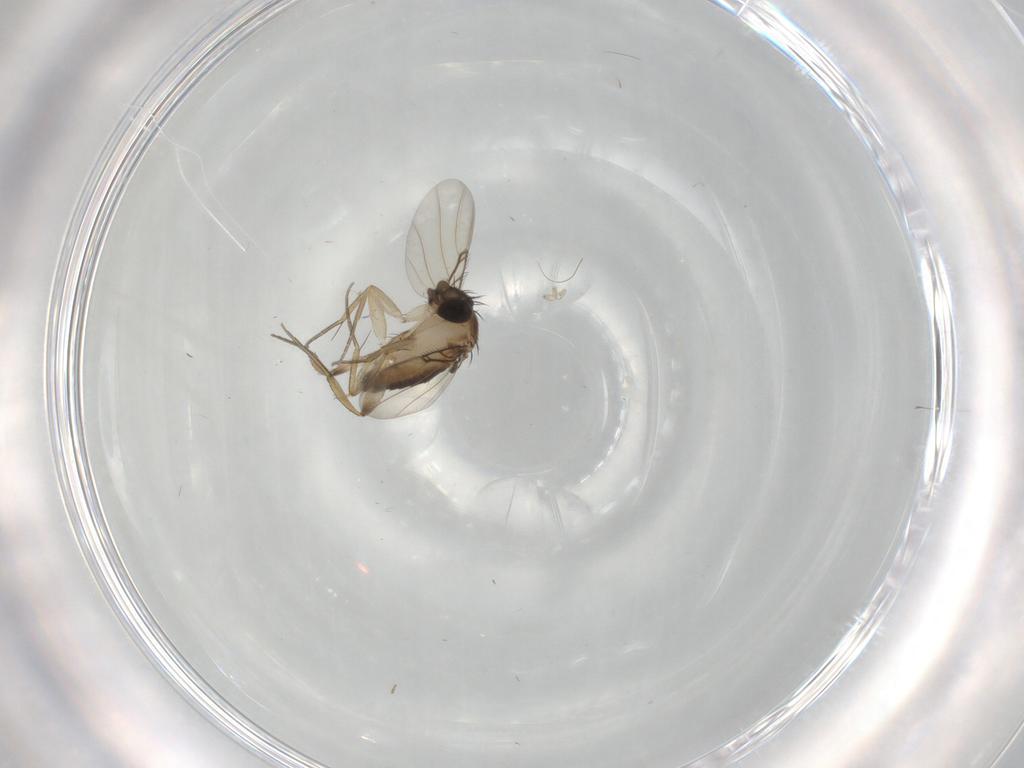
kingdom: Animalia
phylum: Arthropoda
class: Insecta
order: Diptera
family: Phoridae
